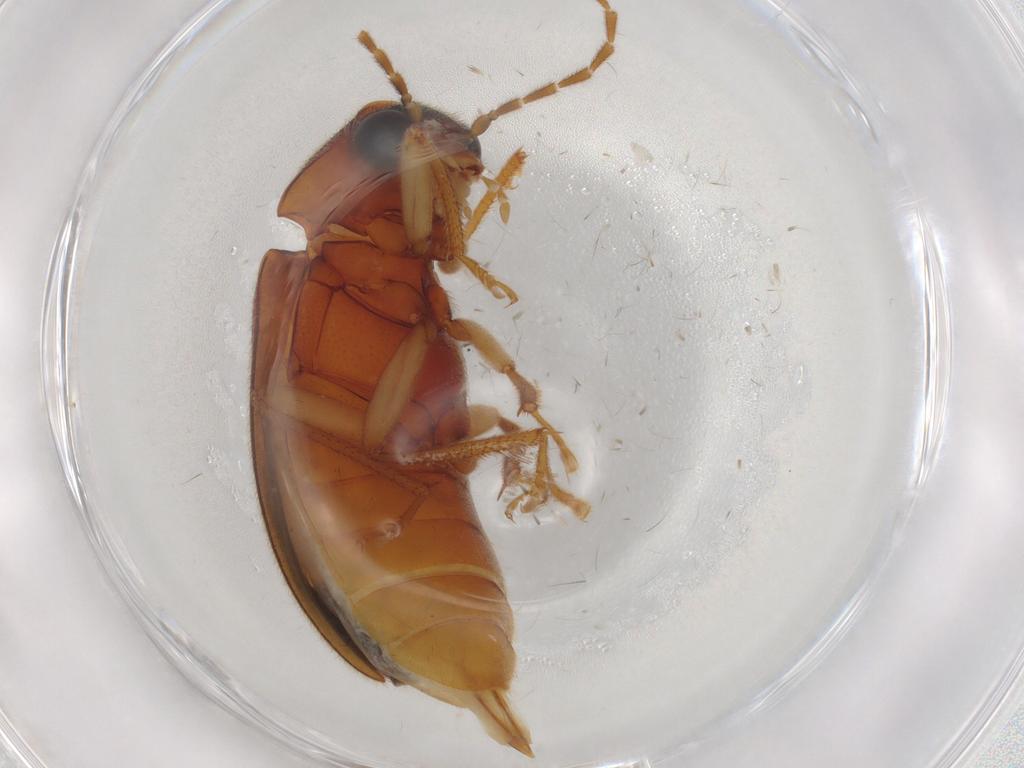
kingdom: Animalia
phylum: Arthropoda
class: Insecta
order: Coleoptera
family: Ptilodactylidae
